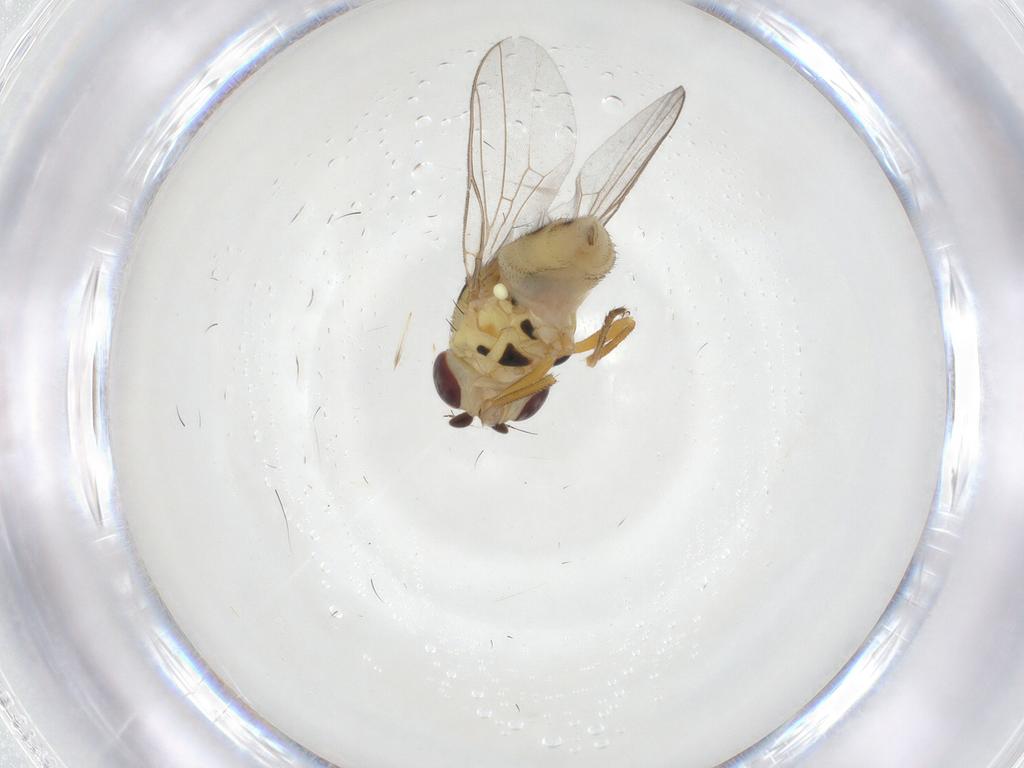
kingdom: Animalia
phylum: Arthropoda
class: Insecta
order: Diptera
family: Chloropidae
